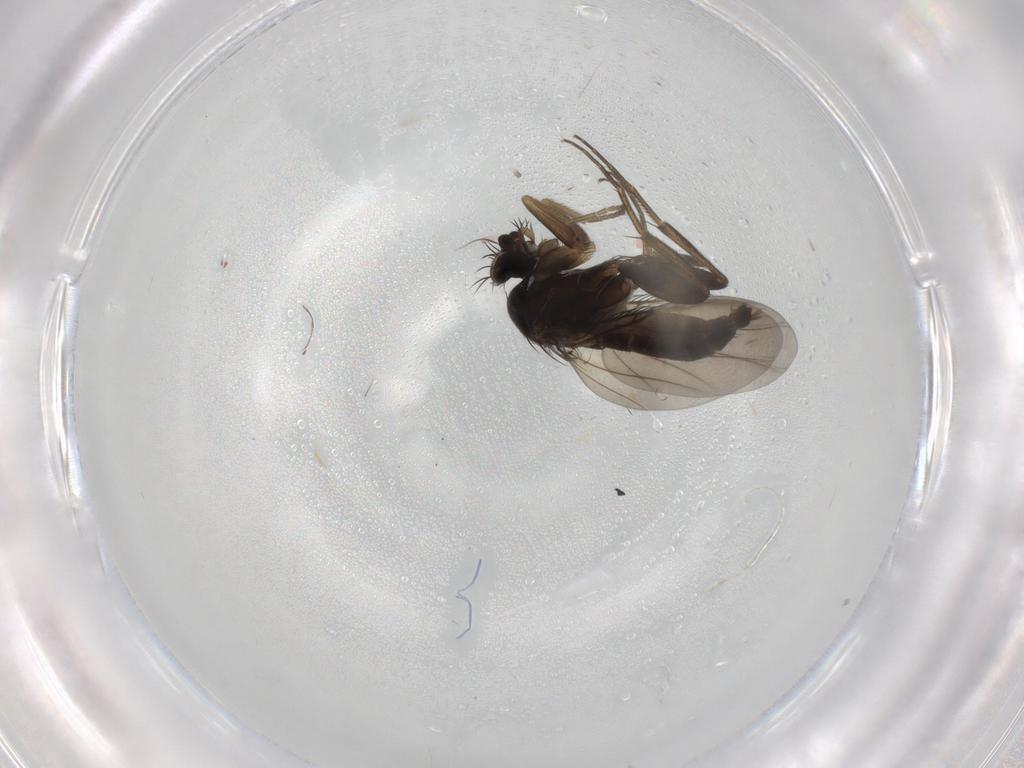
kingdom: Animalia
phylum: Arthropoda
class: Insecta
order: Diptera
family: Phoridae
